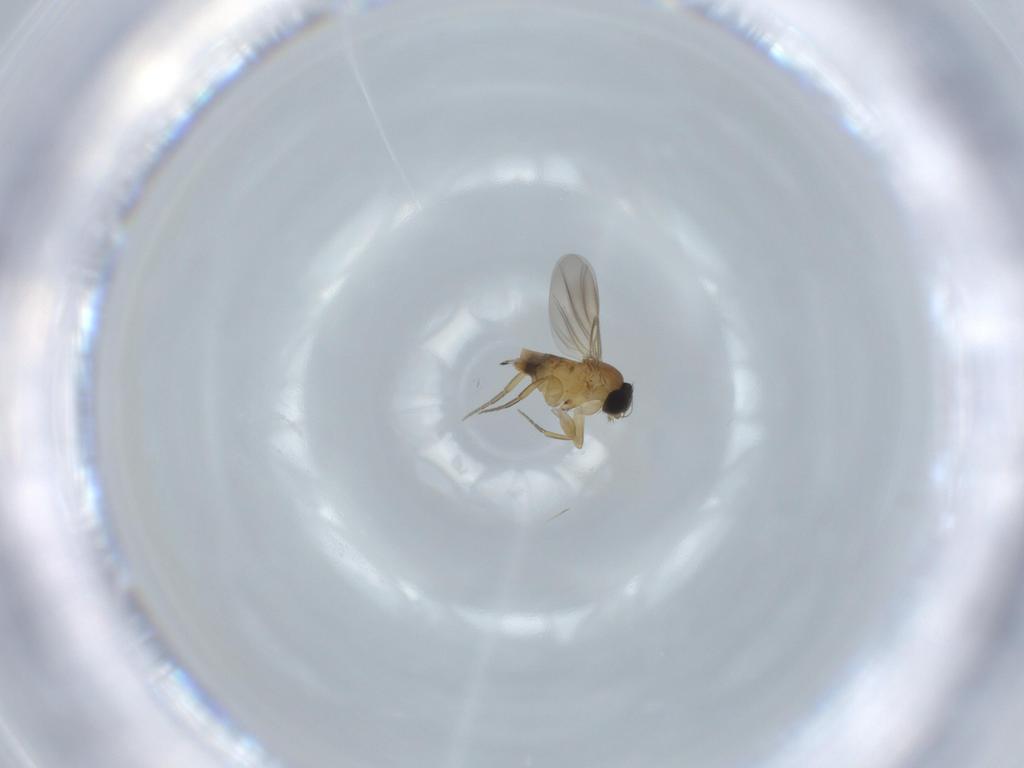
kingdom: Animalia
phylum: Arthropoda
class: Insecta
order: Diptera
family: Phoridae
